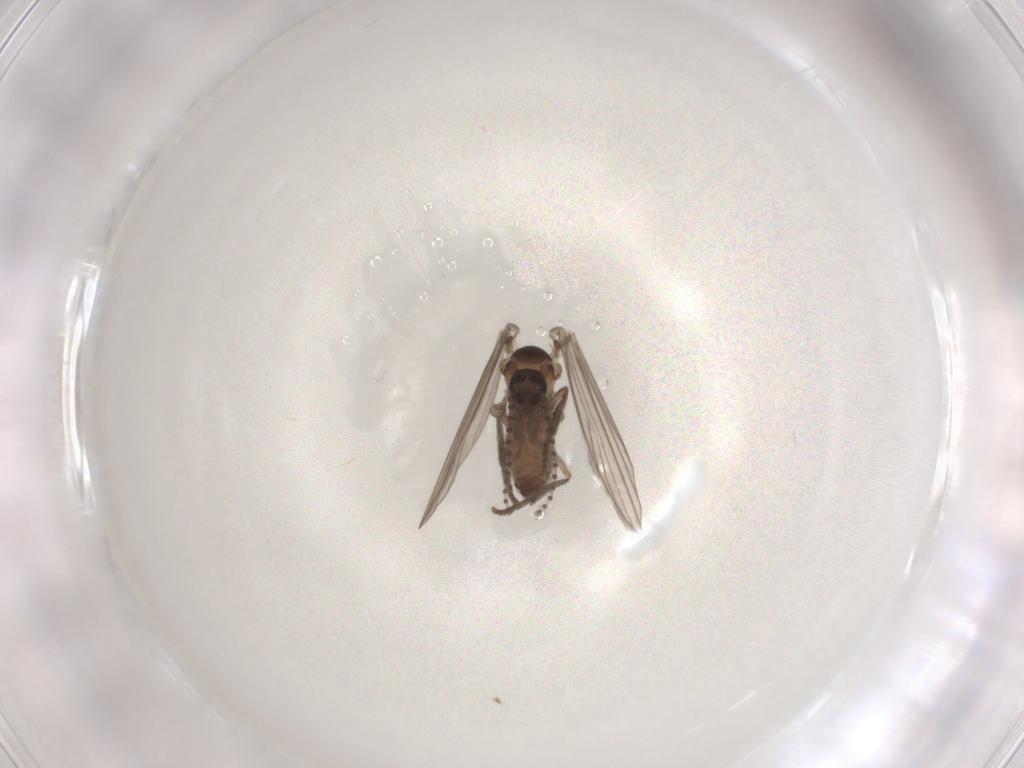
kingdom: Animalia
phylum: Arthropoda
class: Insecta
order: Diptera
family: Psychodidae
